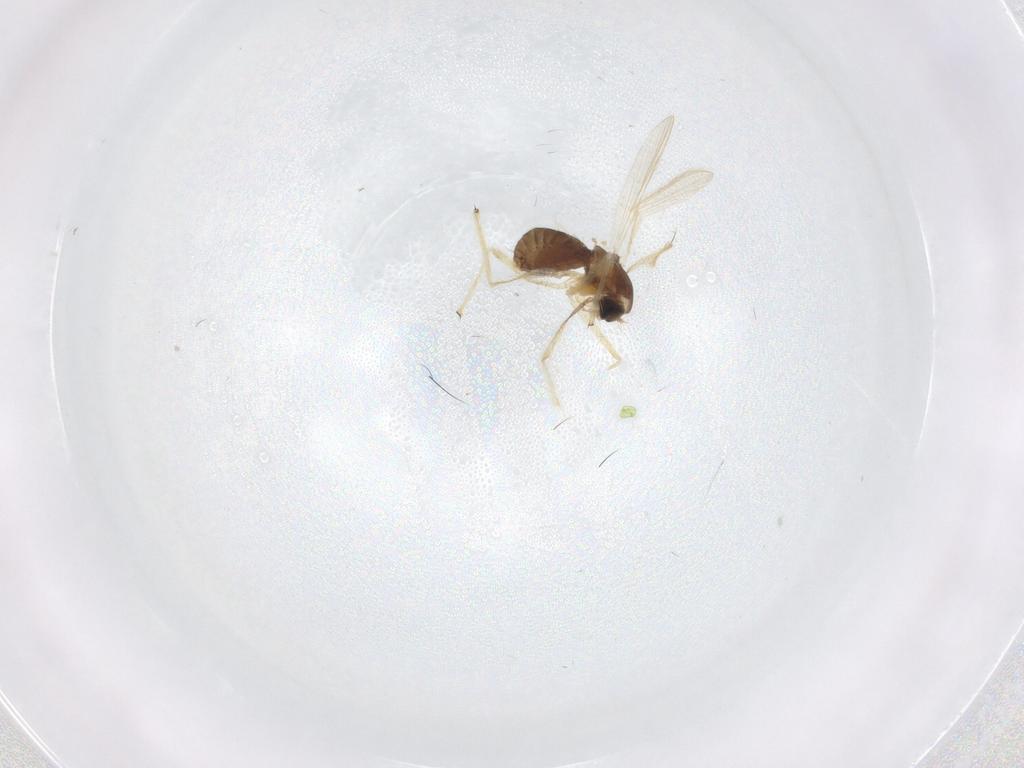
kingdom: Animalia
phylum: Arthropoda
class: Insecta
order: Diptera
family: Chironomidae
